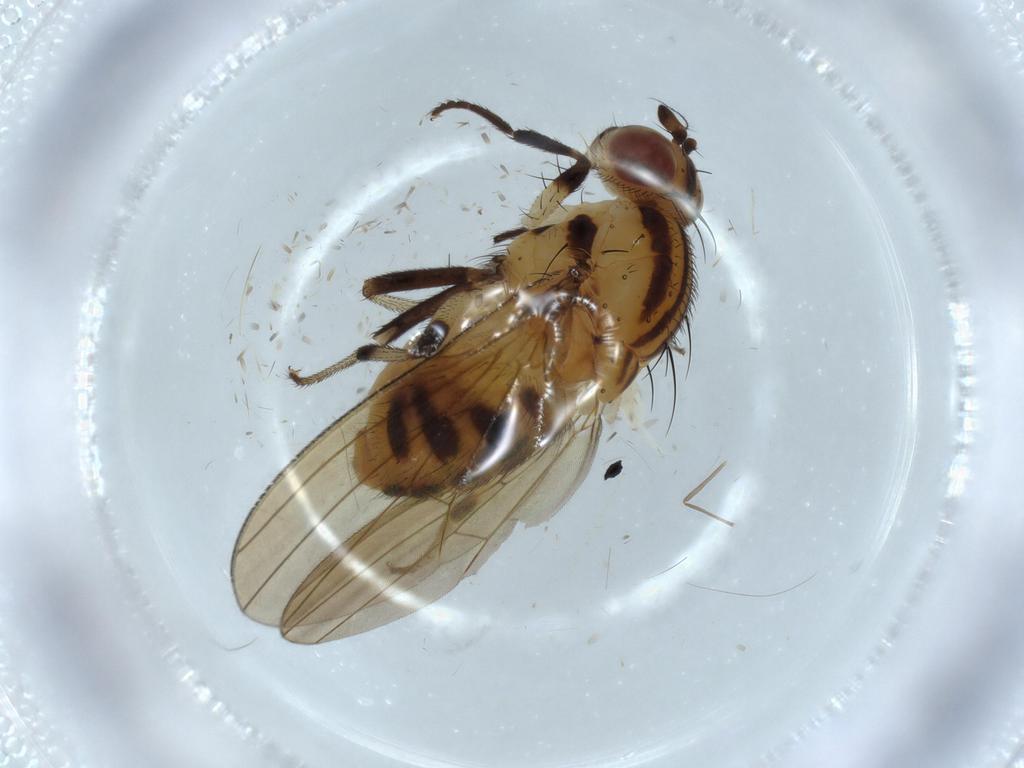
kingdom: Animalia
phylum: Arthropoda
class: Insecta
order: Diptera
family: Lauxaniidae
